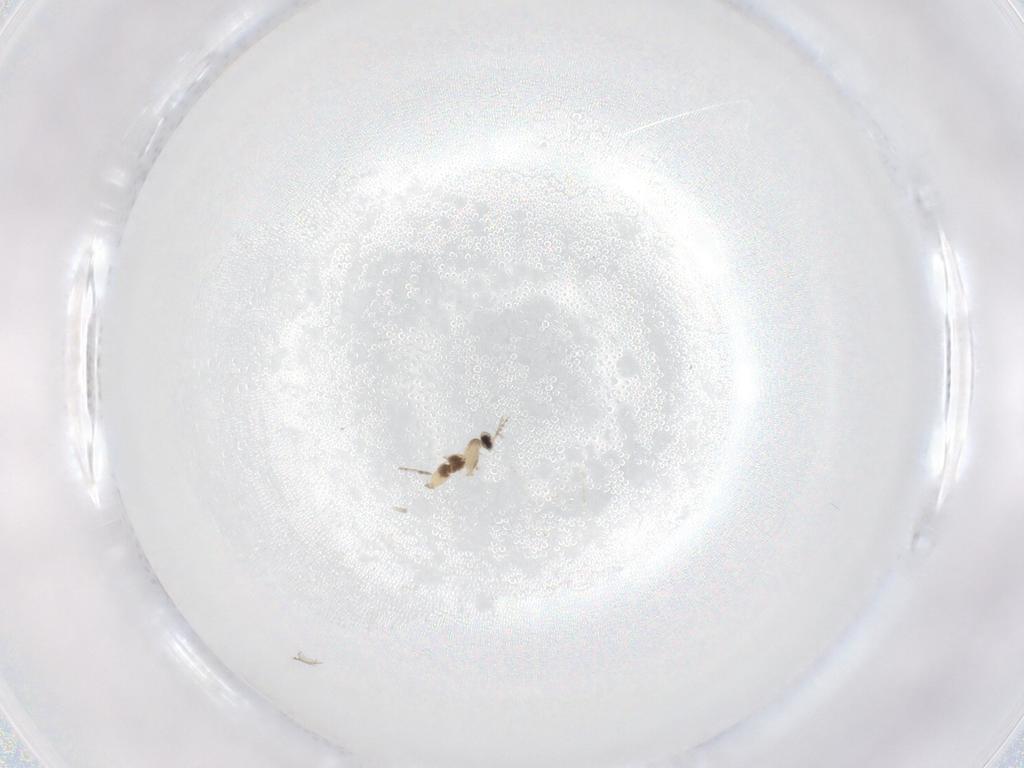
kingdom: Animalia
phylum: Arthropoda
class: Insecta
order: Diptera
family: Cecidomyiidae
